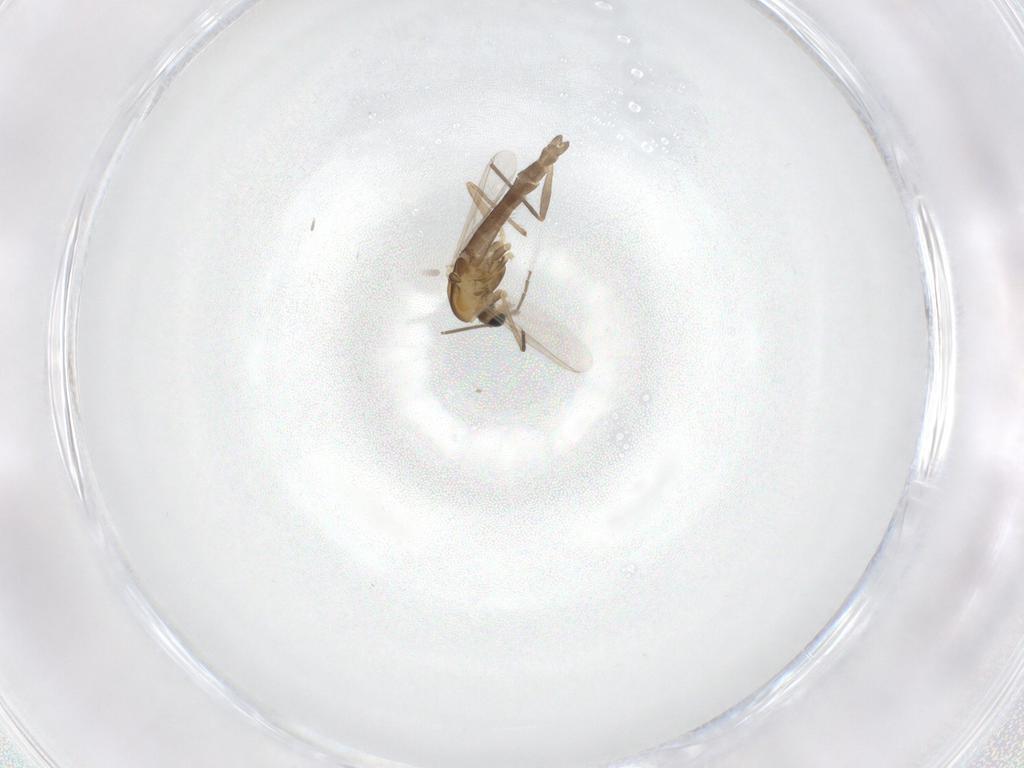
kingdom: Animalia
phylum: Arthropoda
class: Insecta
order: Diptera
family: Chironomidae
